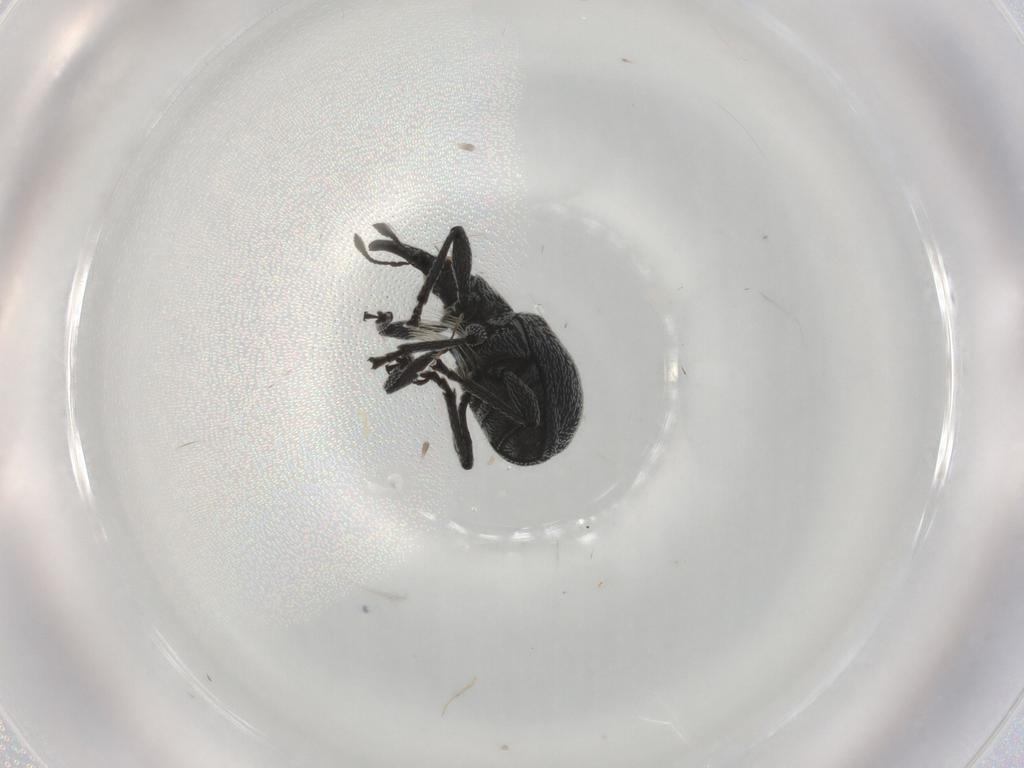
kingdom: Animalia
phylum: Arthropoda
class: Insecta
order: Coleoptera
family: Brentidae
